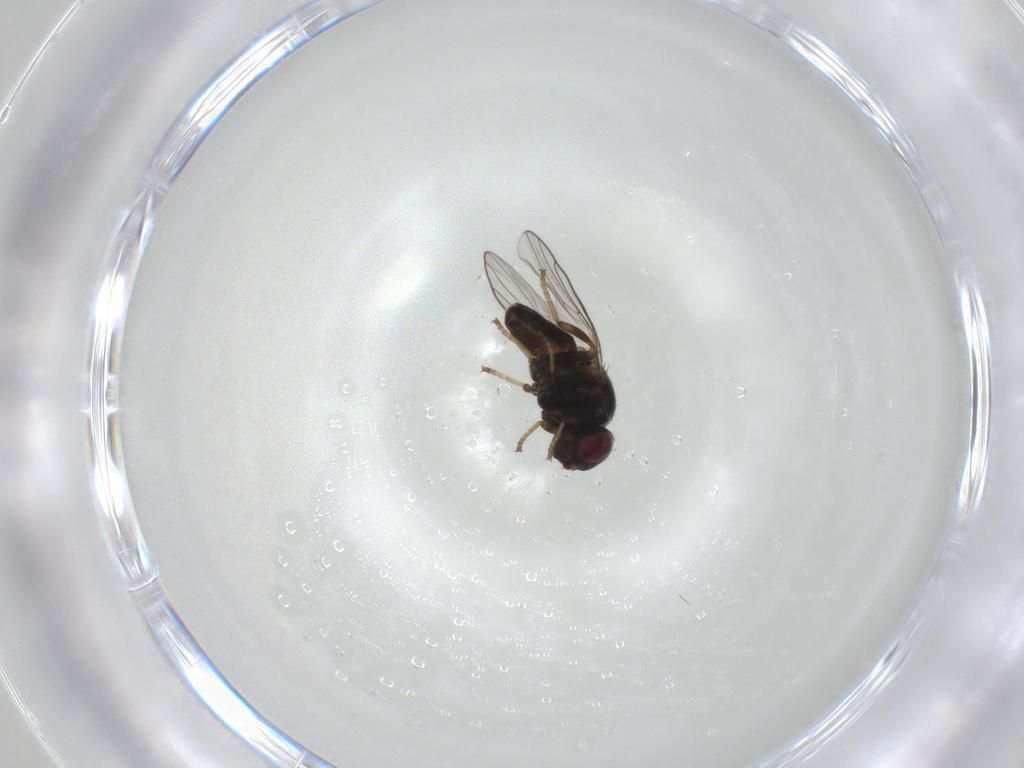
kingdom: Animalia
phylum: Arthropoda
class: Insecta
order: Diptera
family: Chloropidae
